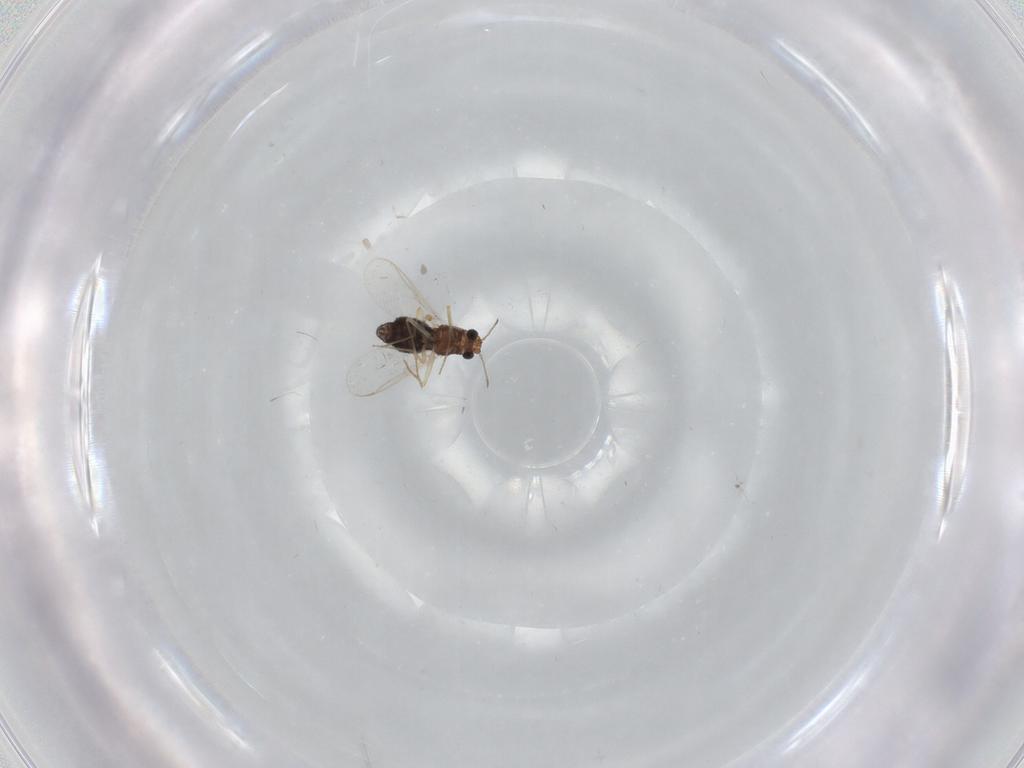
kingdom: Animalia
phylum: Arthropoda
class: Insecta
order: Diptera
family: Chironomidae
